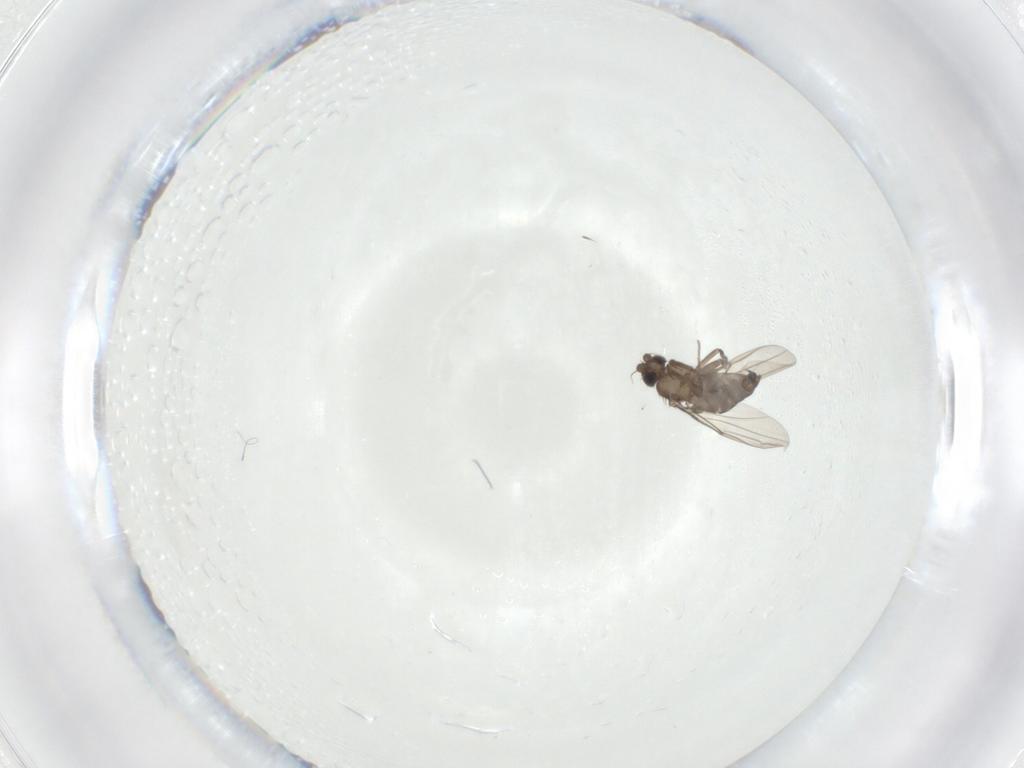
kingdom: Animalia
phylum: Arthropoda
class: Insecta
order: Diptera
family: Phoridae
